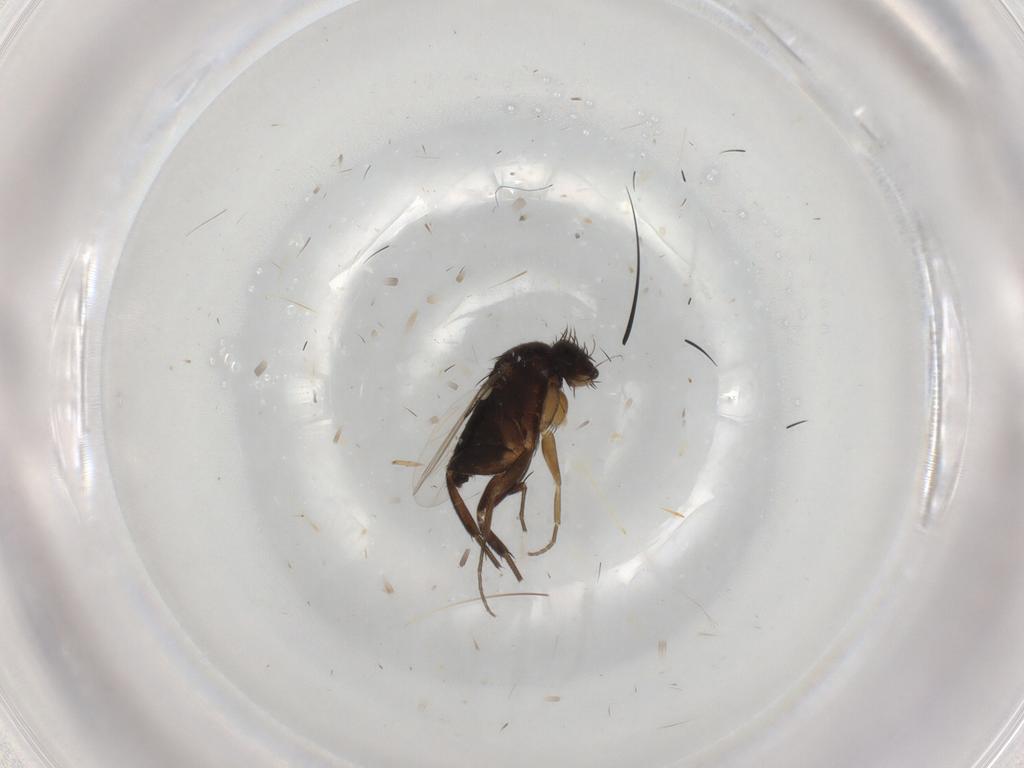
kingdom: Animalia
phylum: Arthropoda
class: Insecta
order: Diptera
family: Phoridae
